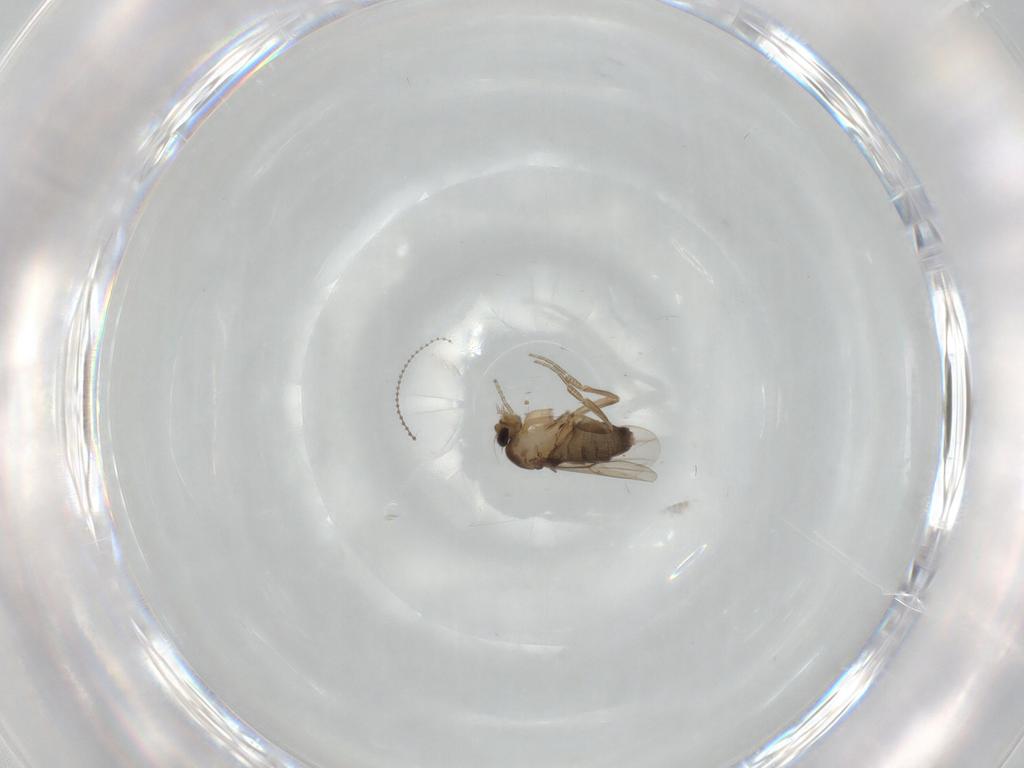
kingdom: Animalia
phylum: Arthropoda
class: Insecta
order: Diptera
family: Phoridae
